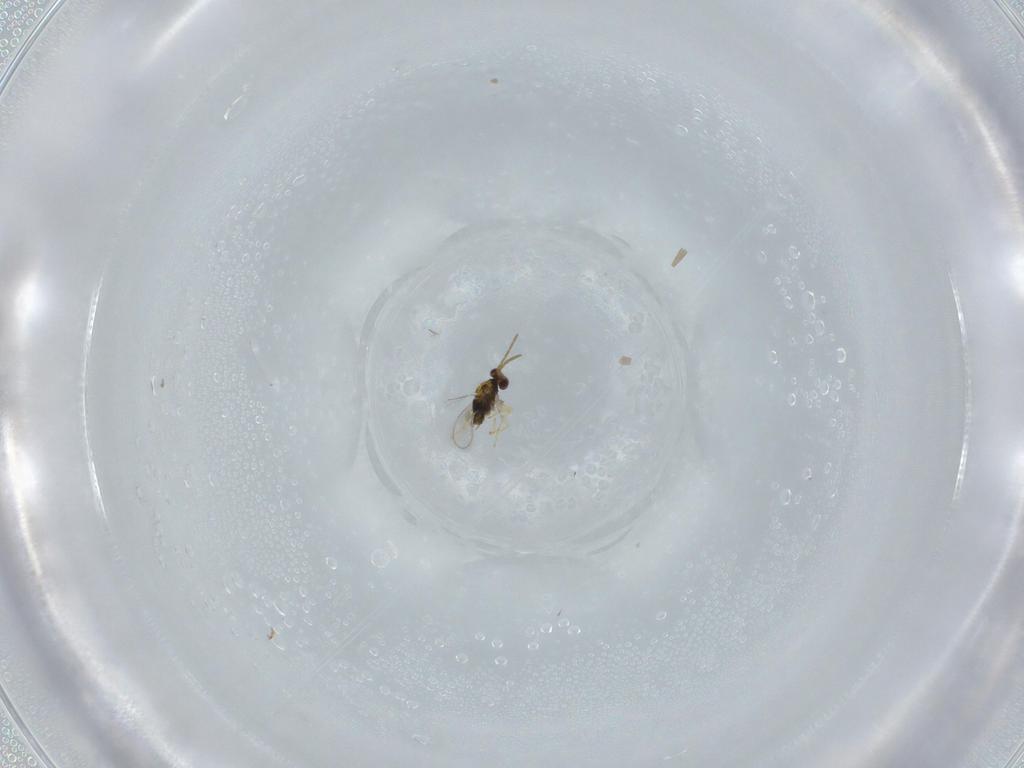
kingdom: Animalia
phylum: Arthropoda
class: Insecta
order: Hymenoptera
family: Aphelinidae
